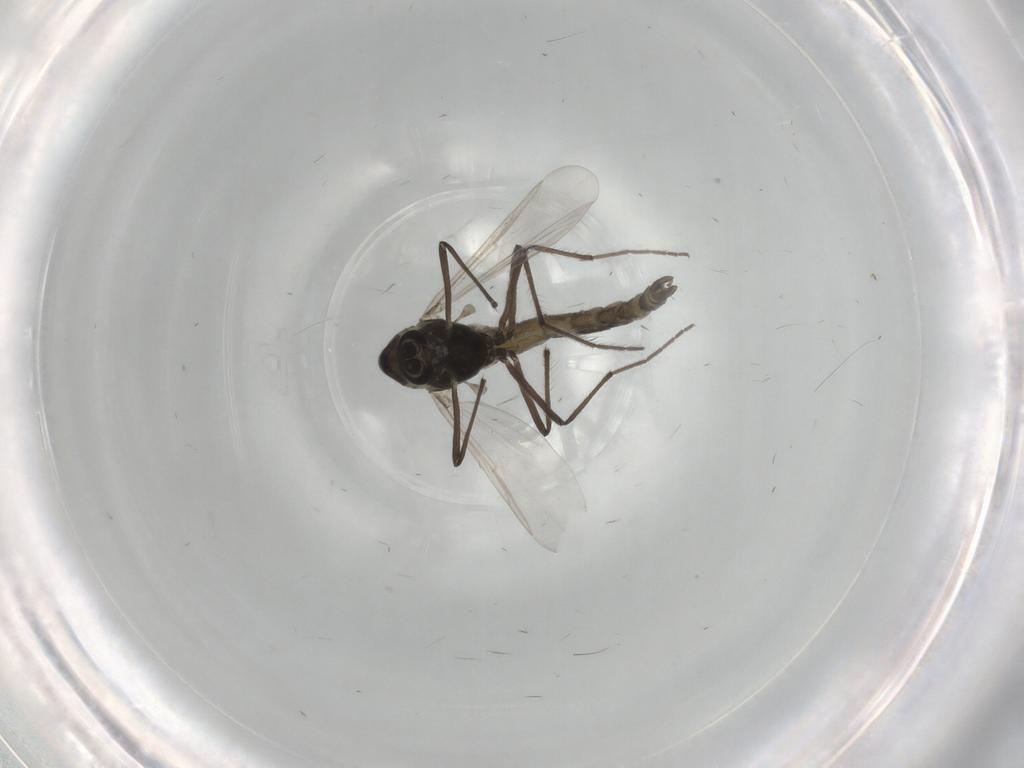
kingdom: Animalia
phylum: Arthropoda
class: Insecta
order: Diptera
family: Chironomidae
